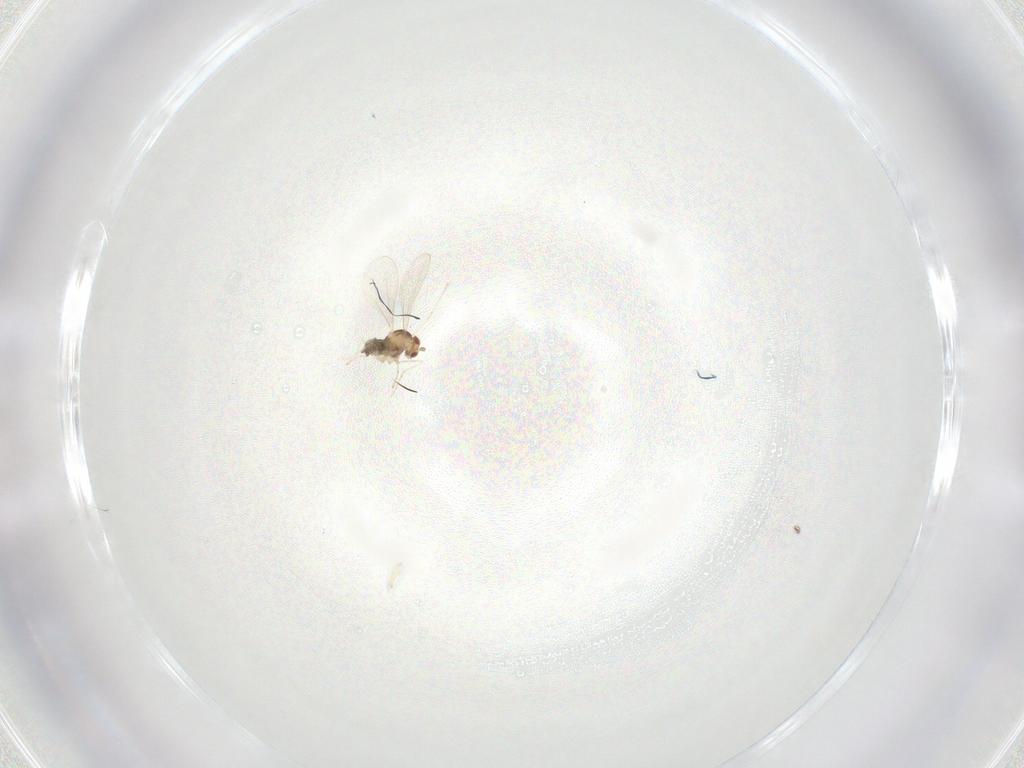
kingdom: Animalia
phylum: Arthropoda
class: Insecta
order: Diptera
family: Cecidomyiidae
